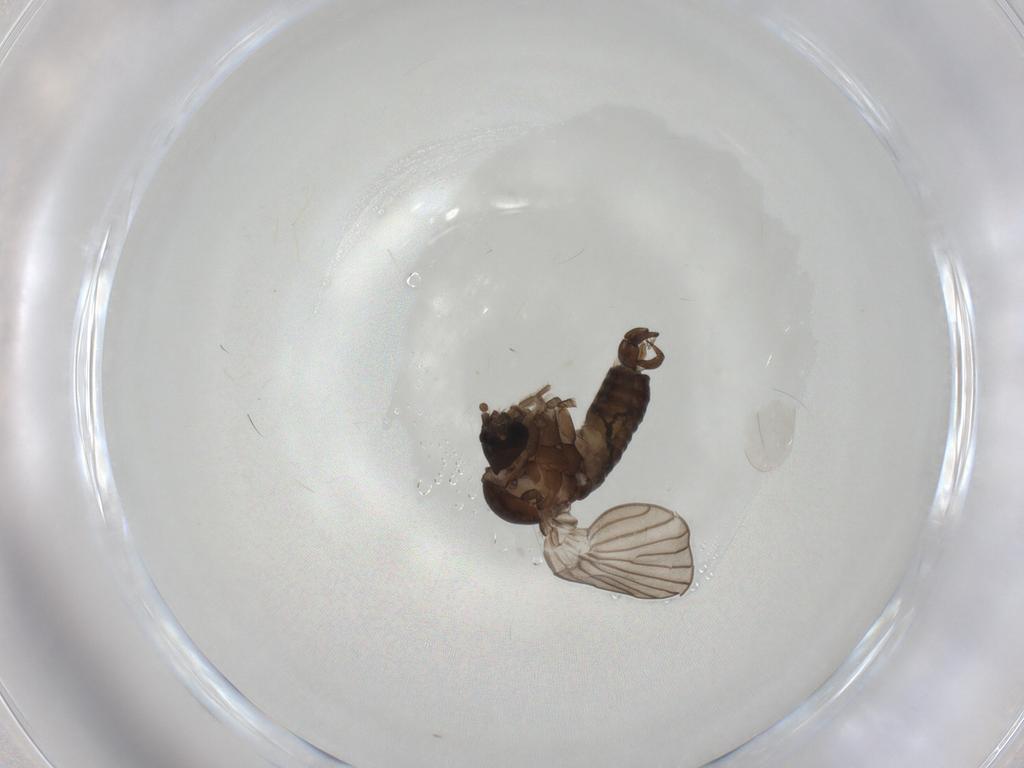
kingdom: Animalia
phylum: Arthropoda
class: Insecta
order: Diptera
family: Psychodidae
